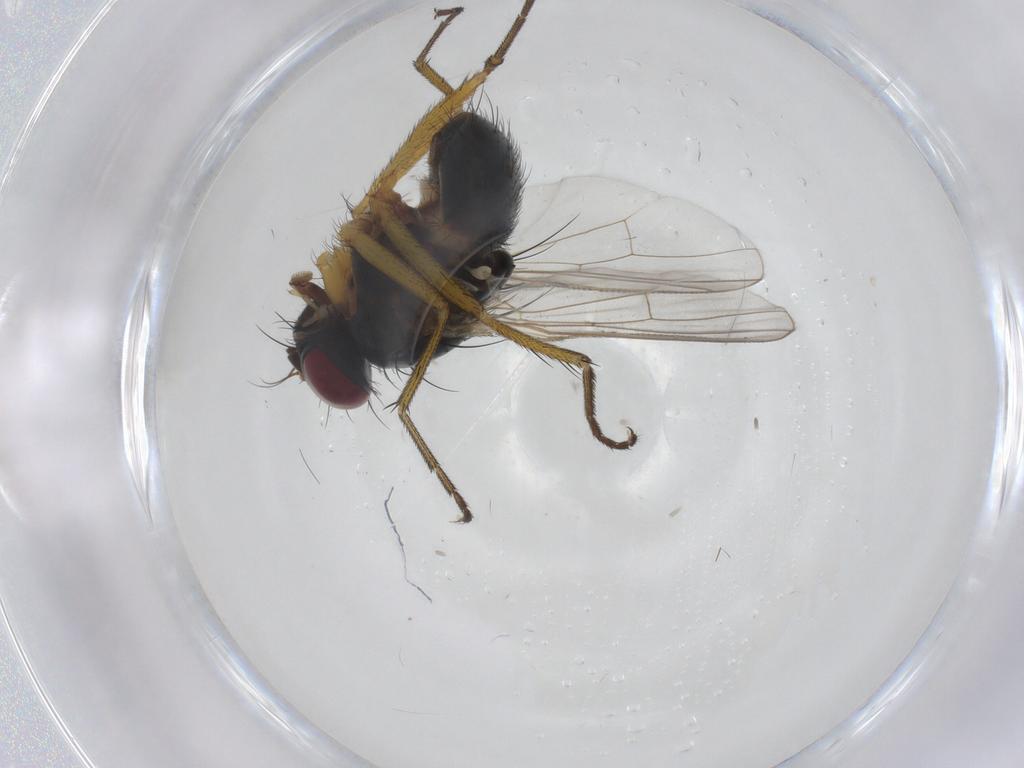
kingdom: Animalia
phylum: Arthropoda
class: Insecta
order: Diptera
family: Muscidae
